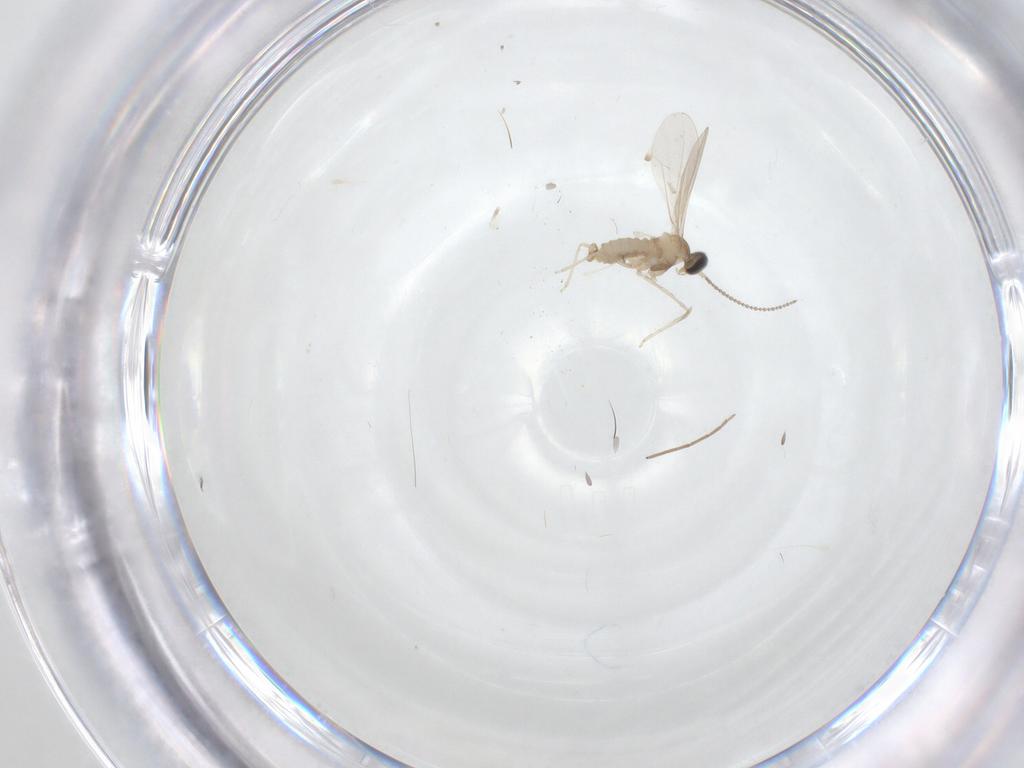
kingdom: Animalia
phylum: Arthropoda
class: Insecta
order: Diptera
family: Cecidomyiidae
